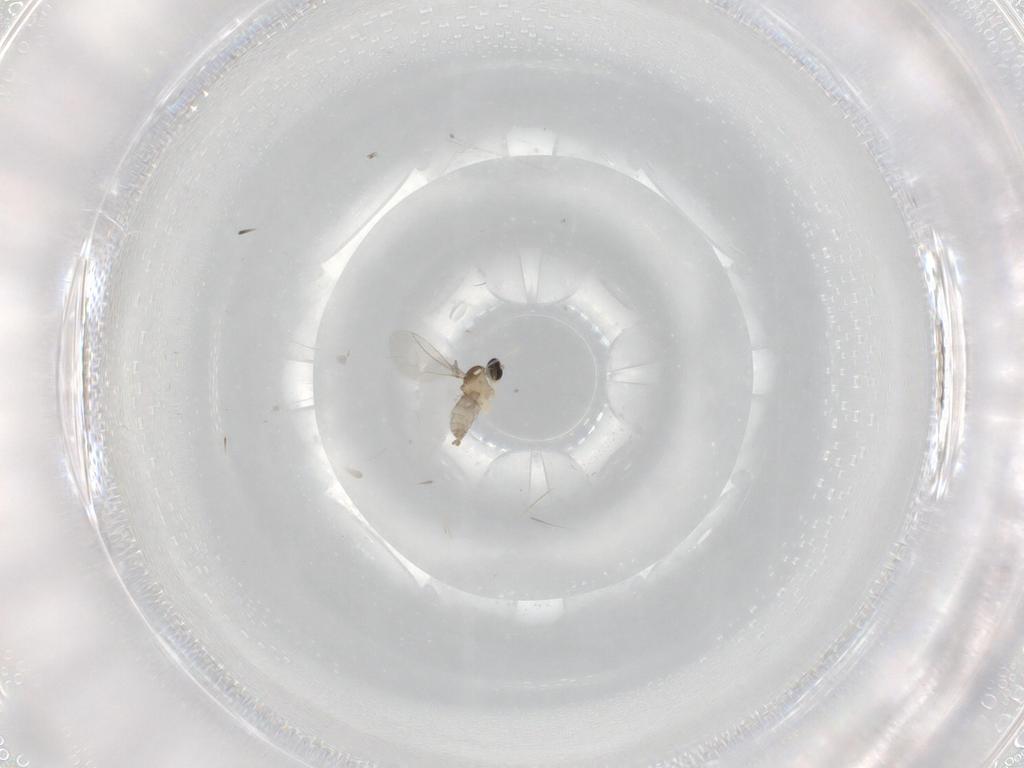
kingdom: Animalia
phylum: Arthropoda
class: Insecta
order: Diptera
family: Cecidomyiidae
